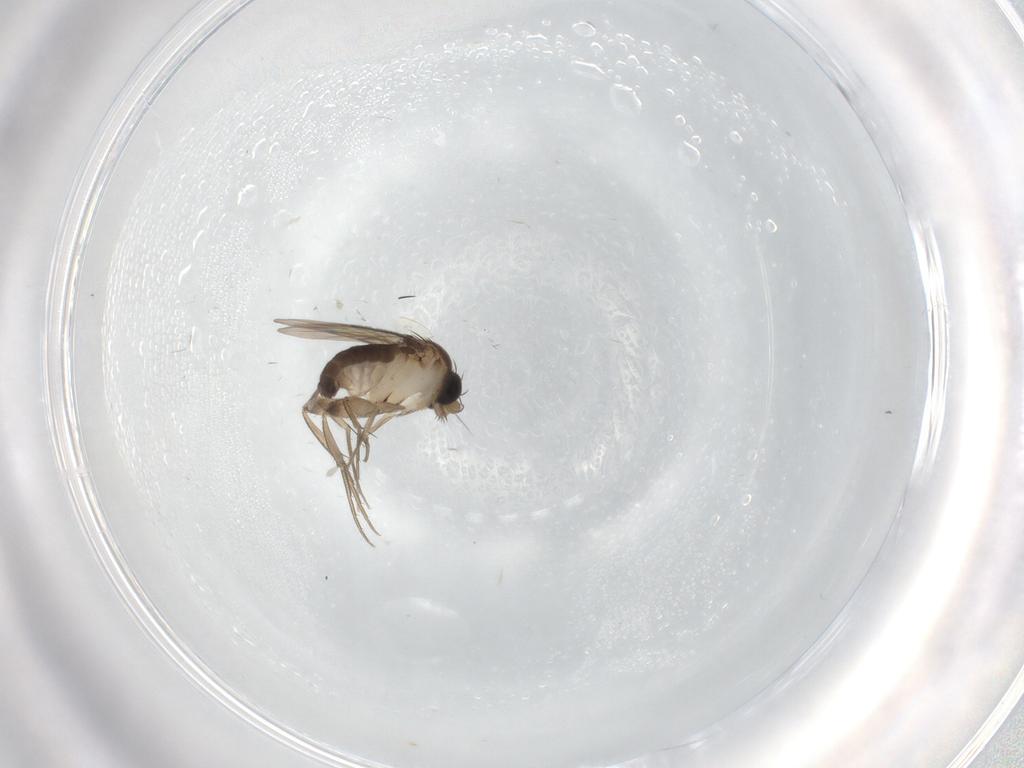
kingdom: Animalia
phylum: Arthropoda
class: Insecta
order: Diptera
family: Phoridae
